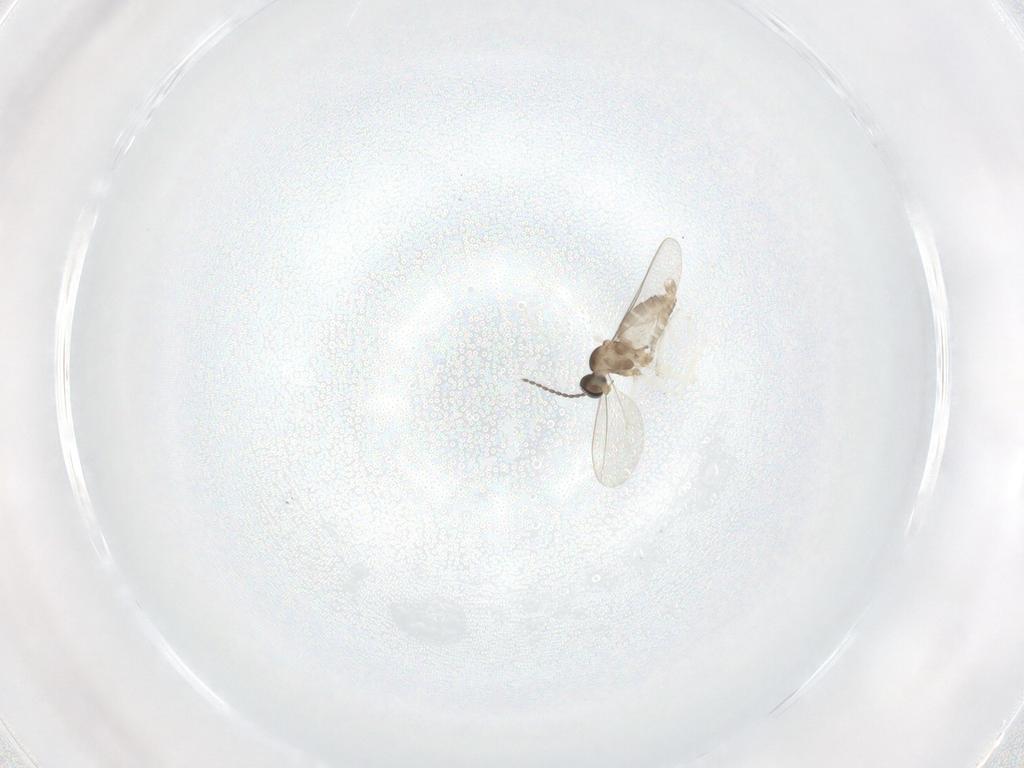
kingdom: Animalia
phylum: Arthropoda
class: Insecta
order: Diptera
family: Cecidomyiidae
